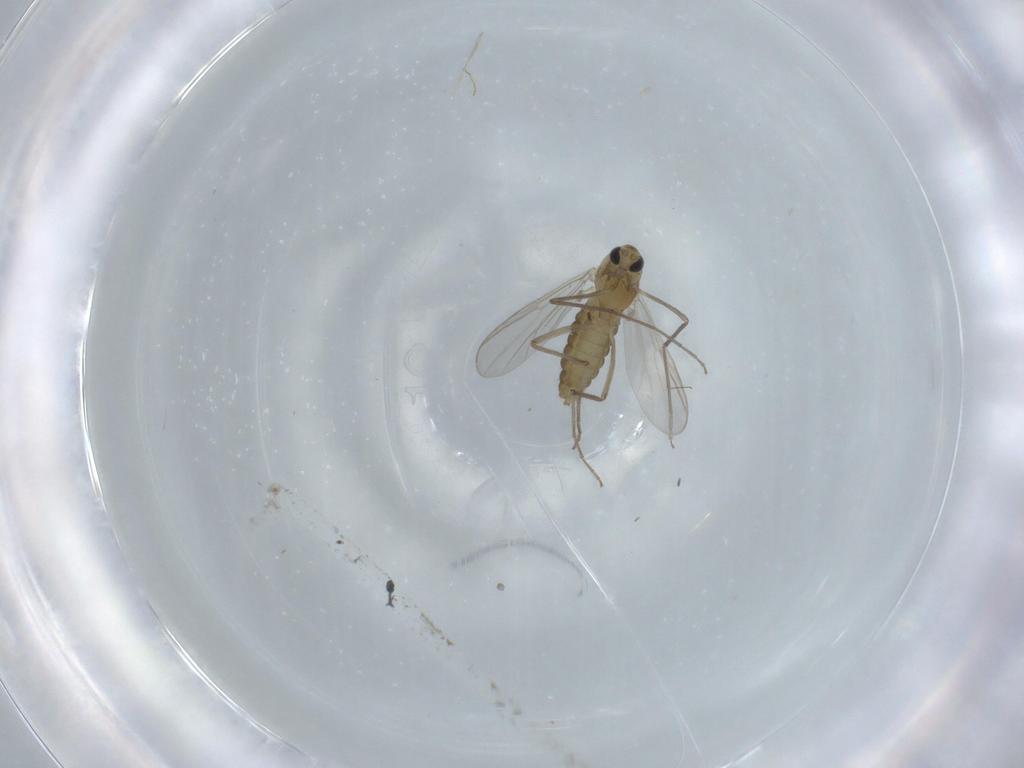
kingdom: Animalia
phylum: Arthropoda
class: Insecta
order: Diptera
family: Chironomidae
